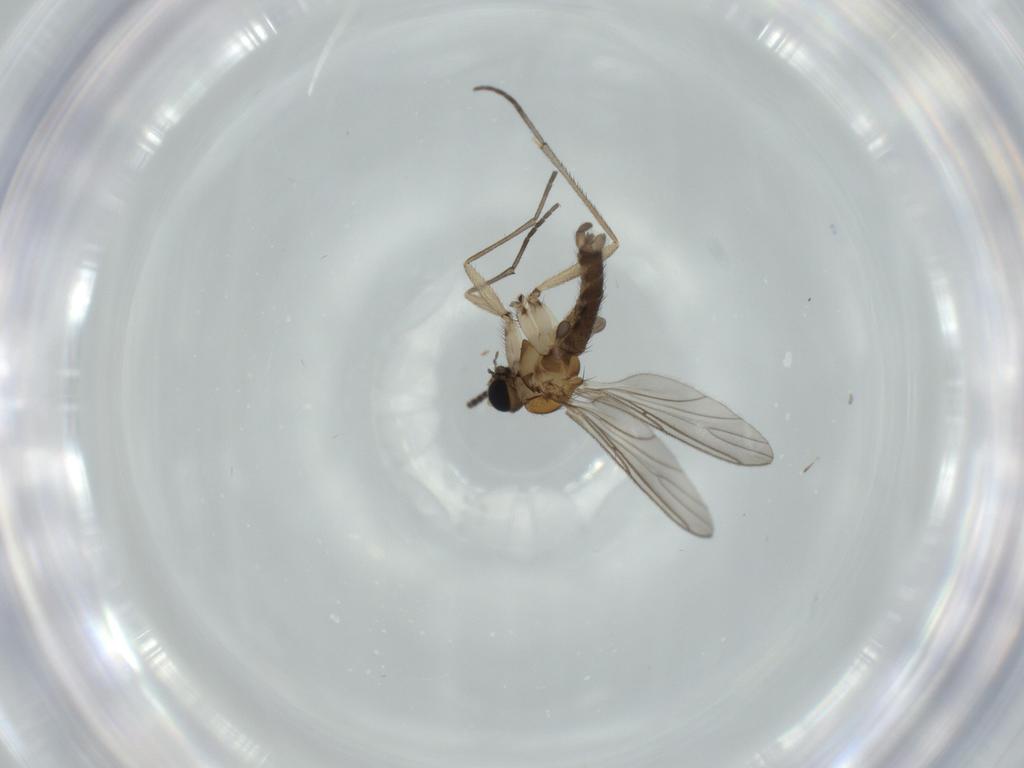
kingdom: Animalia
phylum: Arthropoda
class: Insecta
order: Diptera
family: Sciaridae
